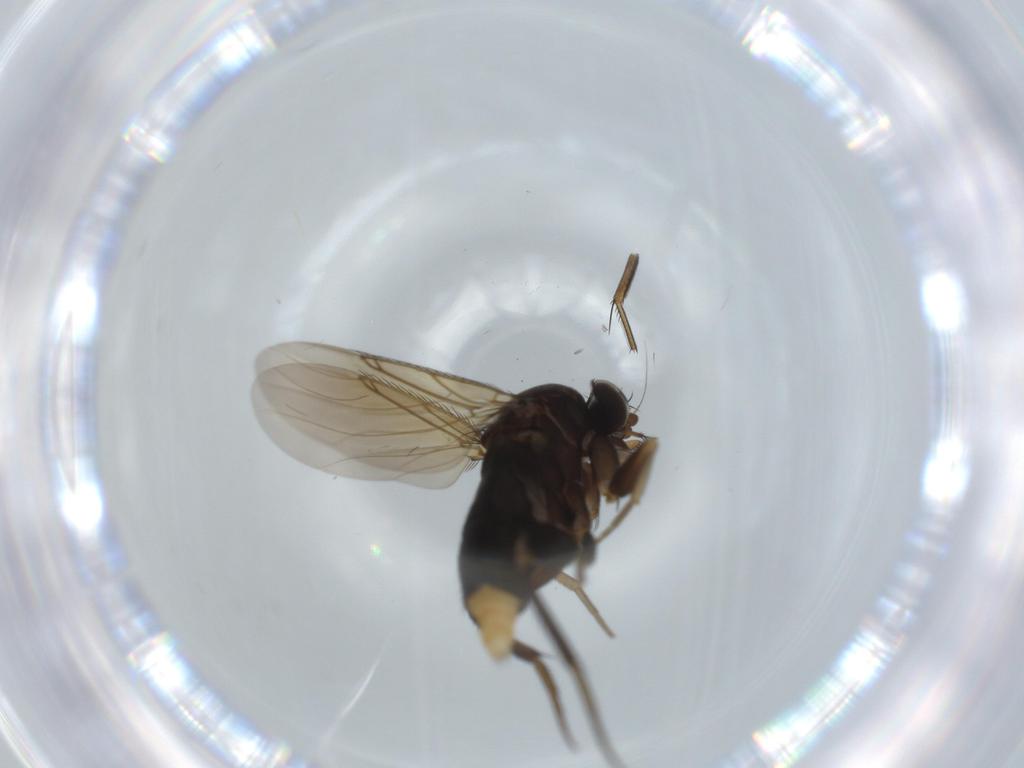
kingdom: Animalia
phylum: Arthropoda
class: Insecta
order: Diptera
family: Phoridae
